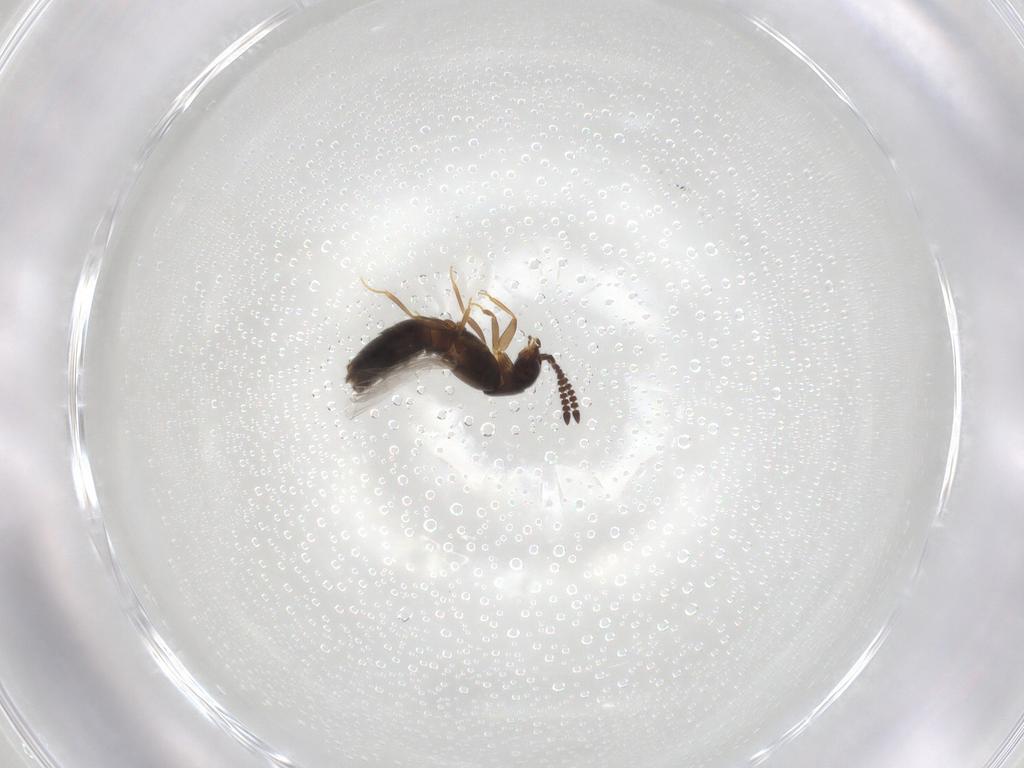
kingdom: Animalia
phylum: Arthropoda
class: Insecta
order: Coleoptera
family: Staphylinidae
